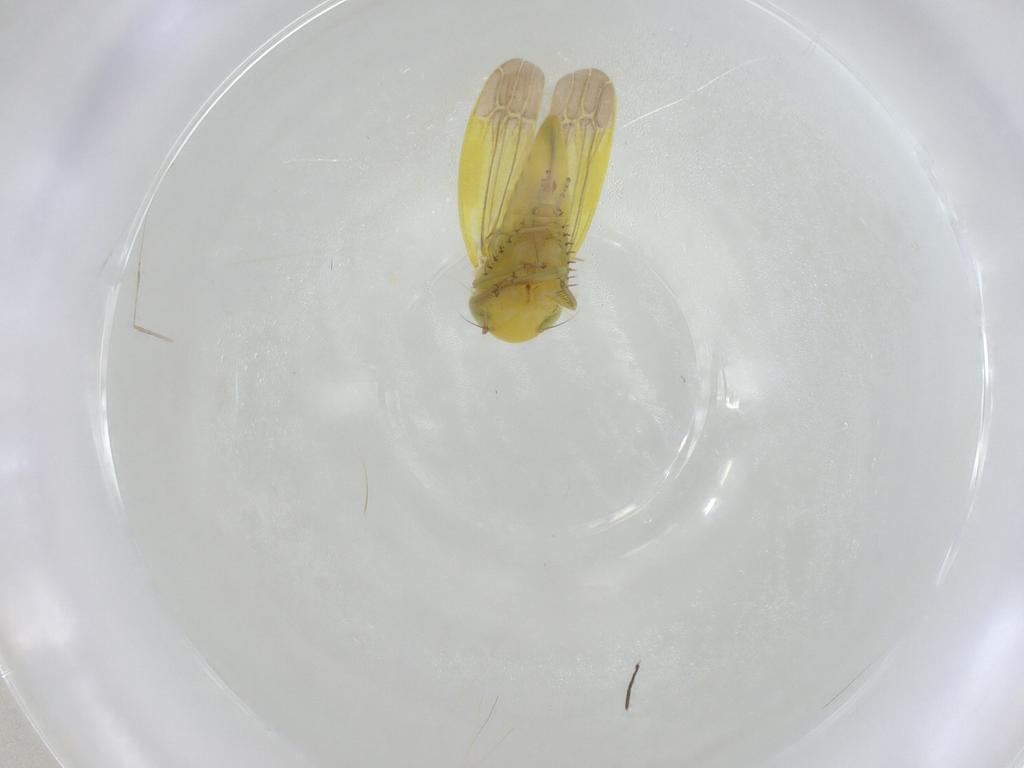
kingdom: Animalia
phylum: Arthropoda
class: Insecta
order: Hemiptera
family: Cicadellidae
